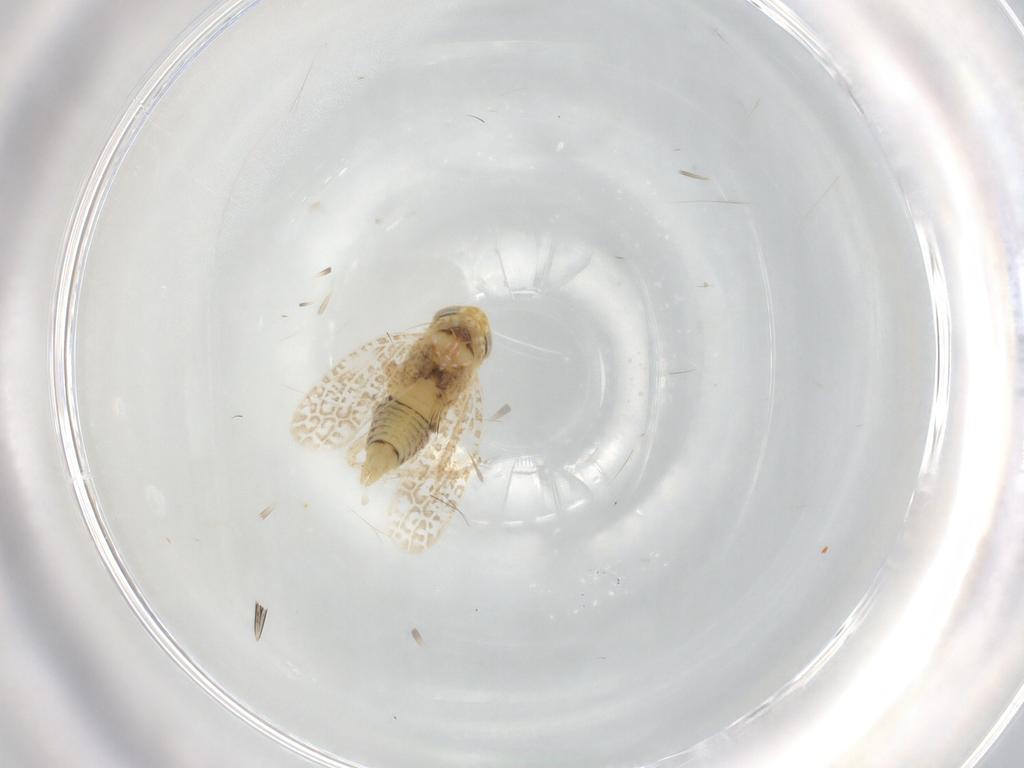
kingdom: Animalia
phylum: Arthropoda
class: Insecta
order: Hemiptera
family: Cicadellidae
